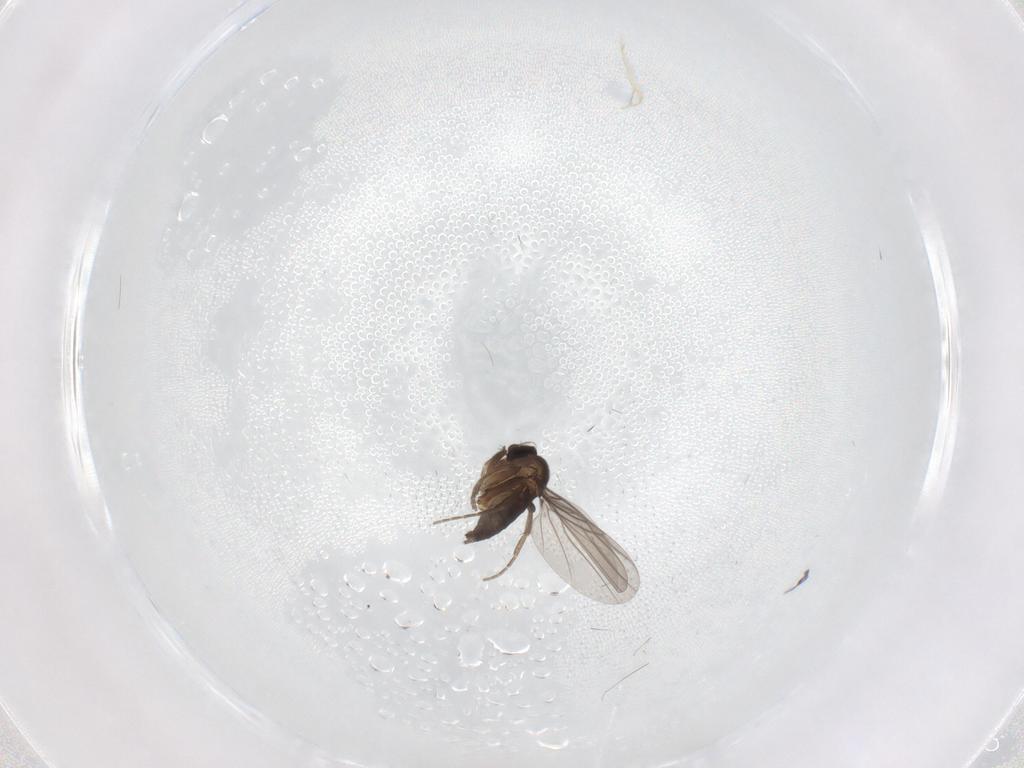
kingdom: Animalia
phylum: Arthropoda
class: Insecta
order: Diptera
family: Cecidomyiidae
